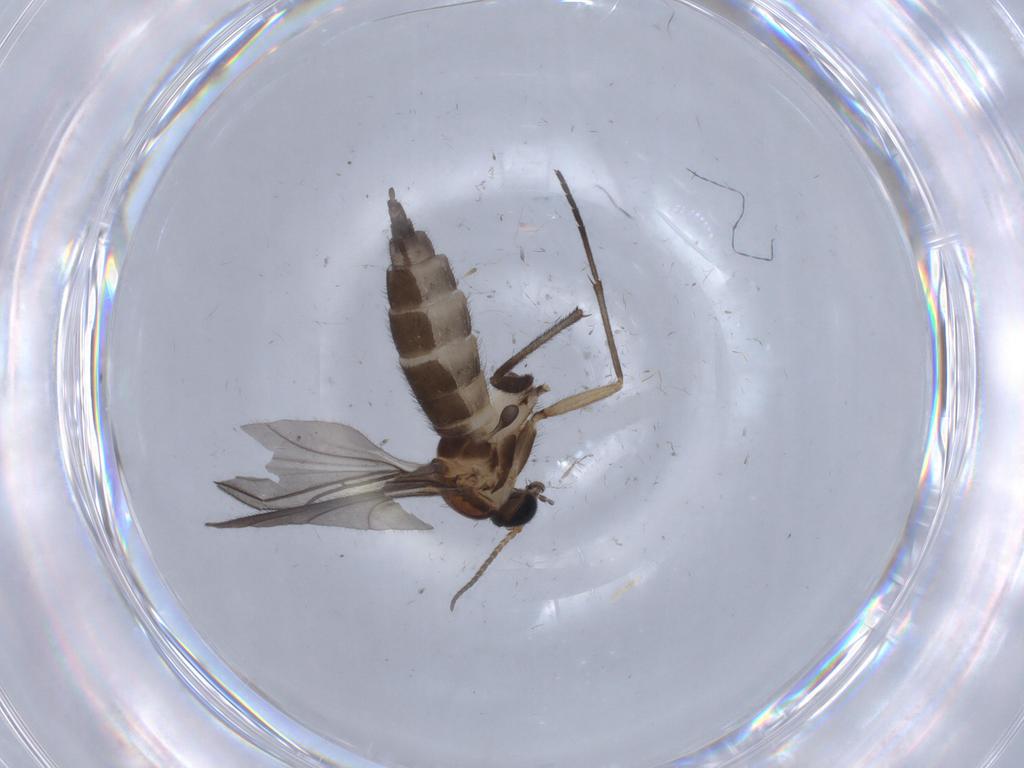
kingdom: Animalia
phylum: Arthropoda
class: Insecta
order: Diptera
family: Sciaridae
